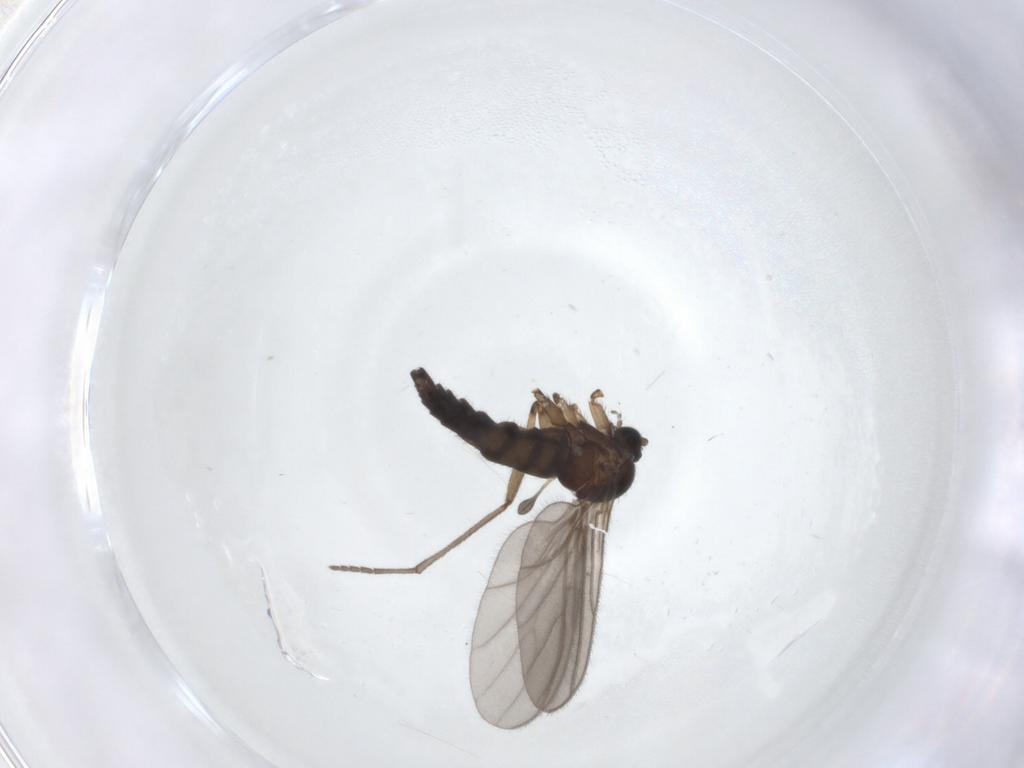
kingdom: Animalia
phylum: Arthropoda
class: Insecta
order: Diptera
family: Sciaridae
